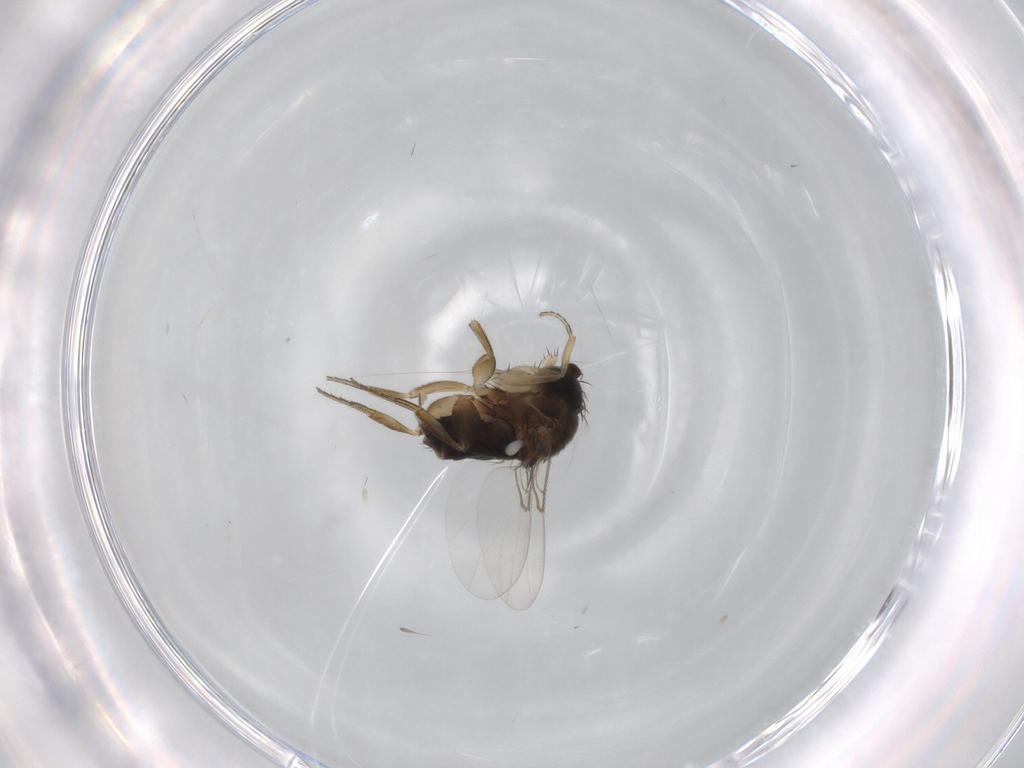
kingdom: Animalia
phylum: Arthropoda
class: Insecta
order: Diptera
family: Phoridae
